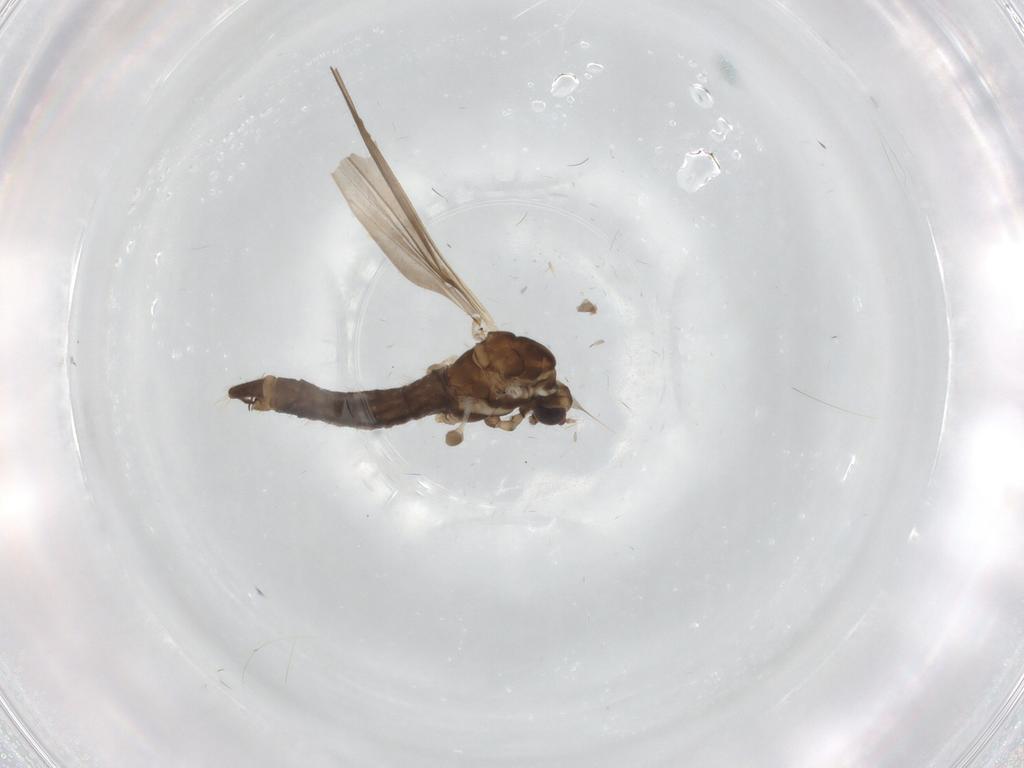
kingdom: Animalia
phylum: Arthropoda
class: Insecta
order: Diptera
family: Limoniidae
